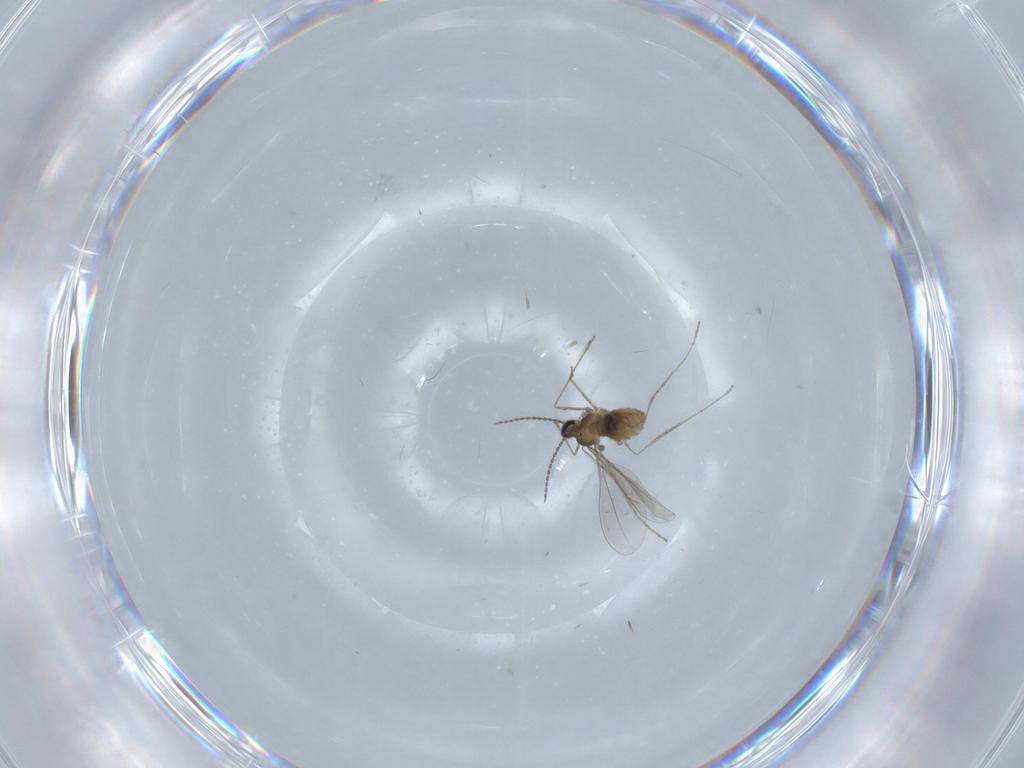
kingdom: Animalia
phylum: Arthropoda
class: Insecta
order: Diptera
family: Cecidomyiidae
